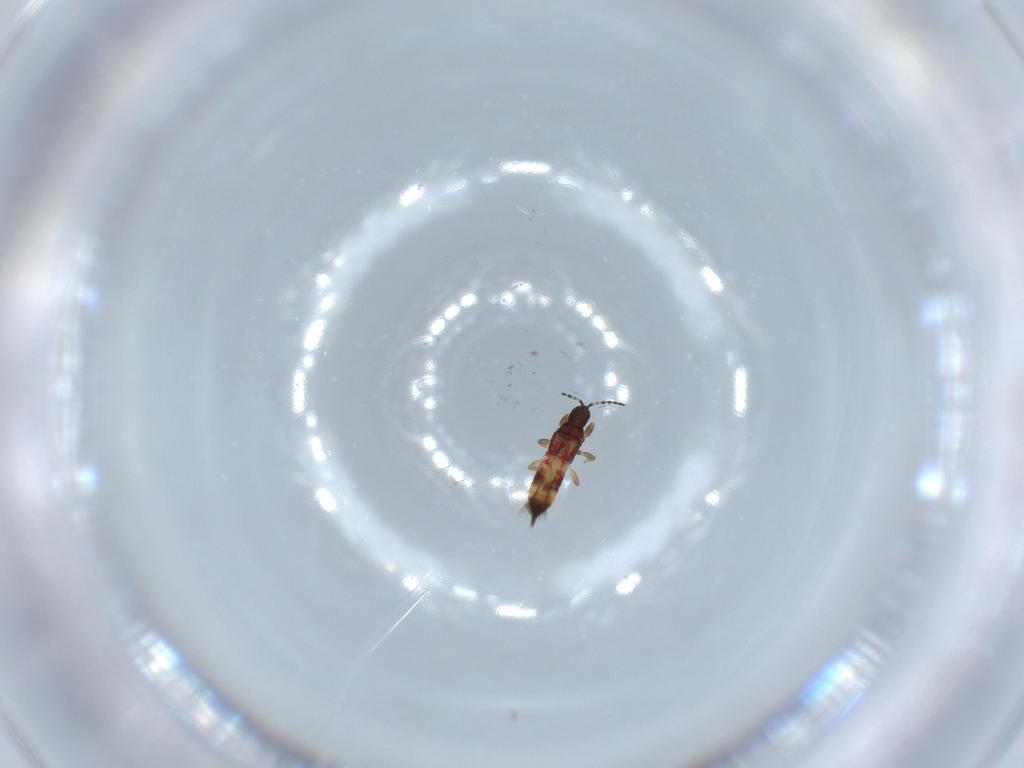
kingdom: Animalia
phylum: Arthropoda
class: Insecta
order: Thysanoptera
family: Phlaeothripidae
